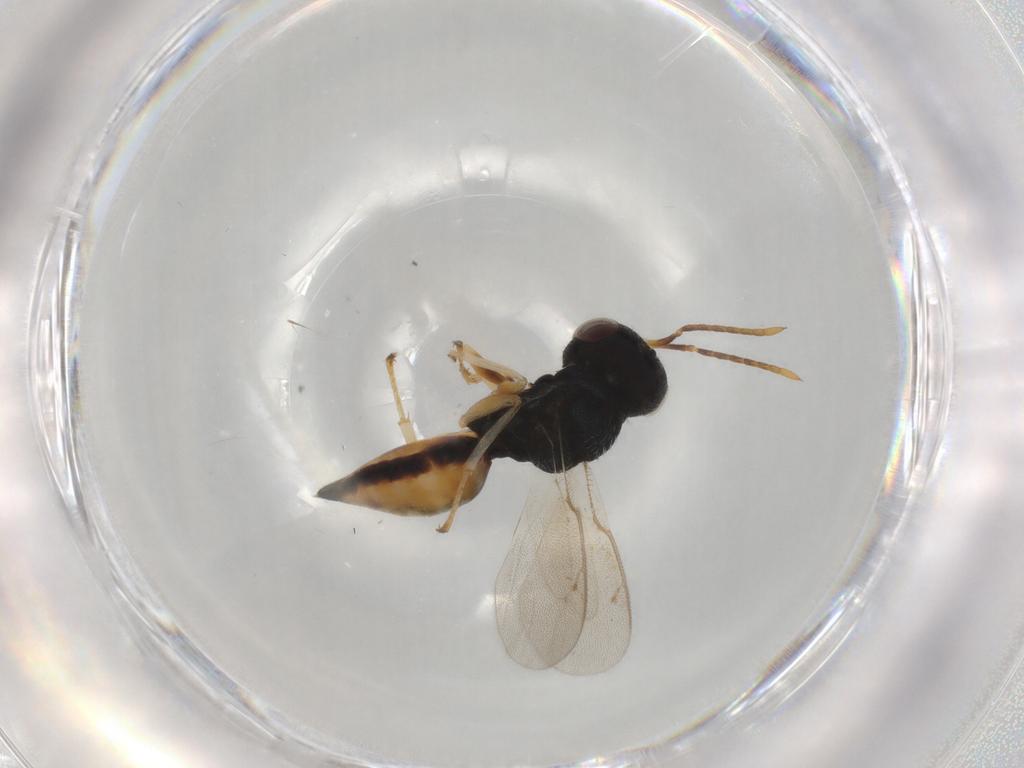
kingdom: Animalia
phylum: Arthropoda
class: Insecta
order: Hymenoptera
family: Pteromalidae
